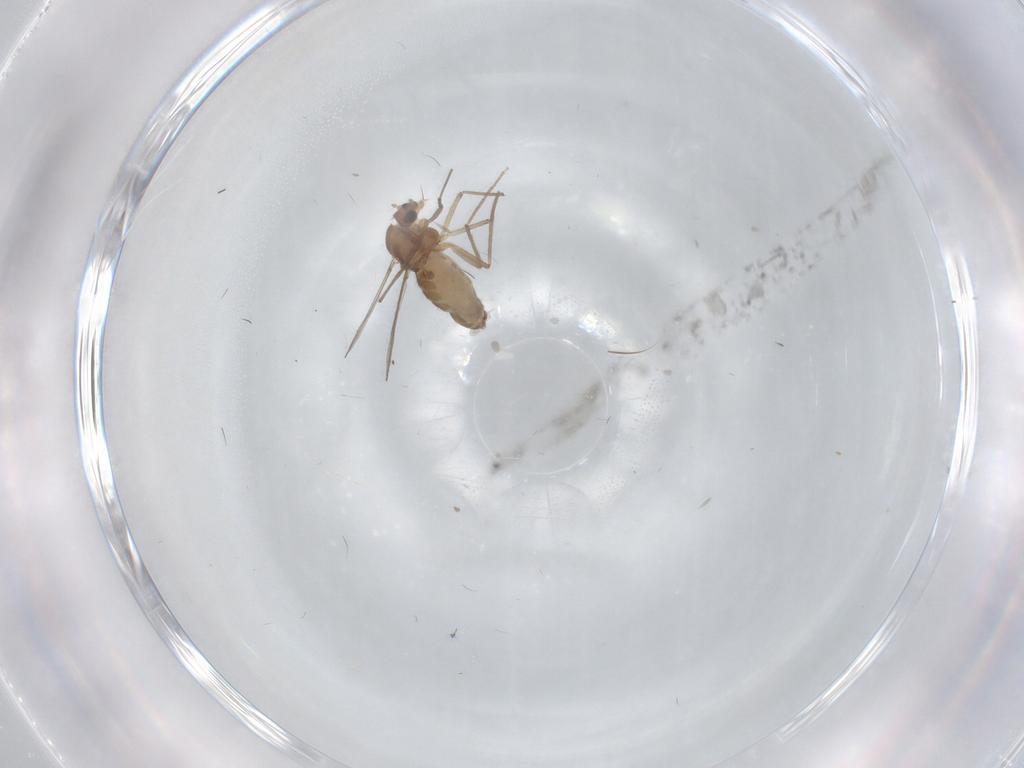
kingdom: Animalia
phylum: Arthropoda
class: Insecta
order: Diptera
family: Chironomidae
